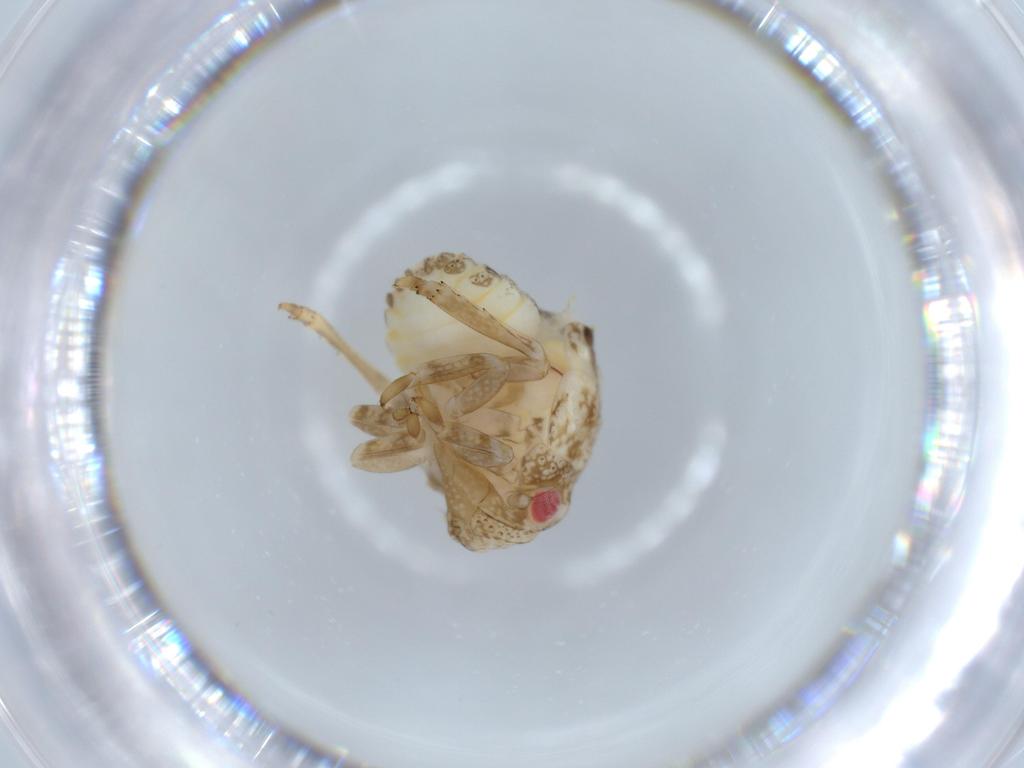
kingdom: Animalia
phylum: Arthropoda
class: Insecta
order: Hemiptera
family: Acanaloniidae
